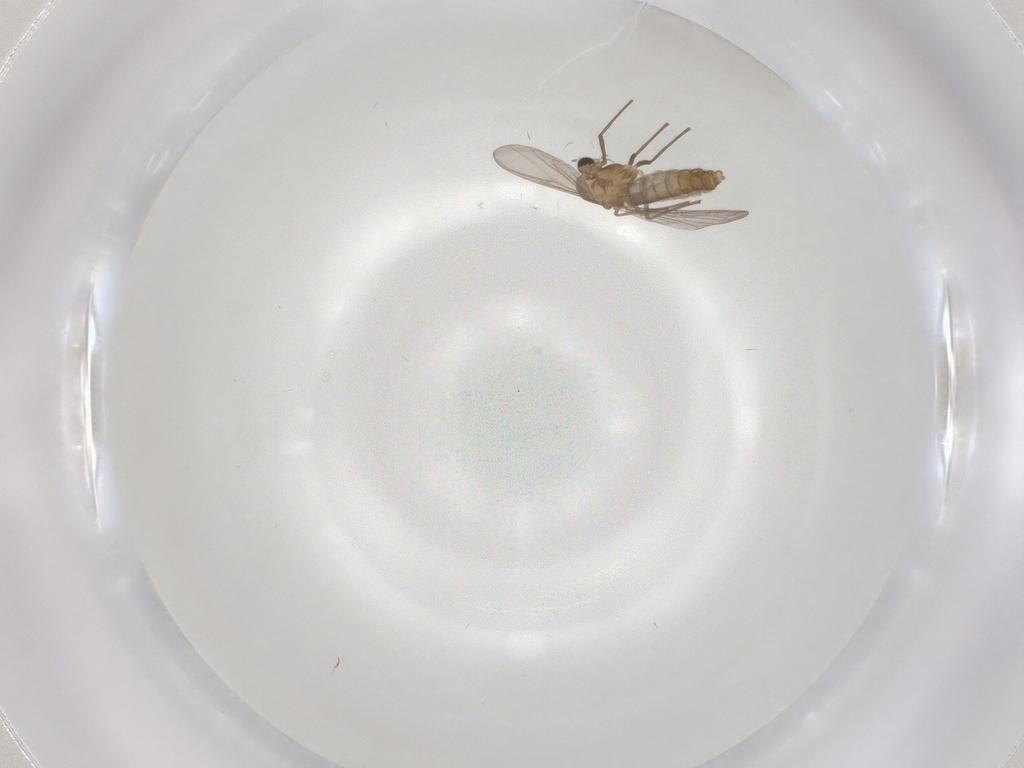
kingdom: Animalia
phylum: Arthropoda
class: Insecta
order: Diptera
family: Ceratopogonidae
